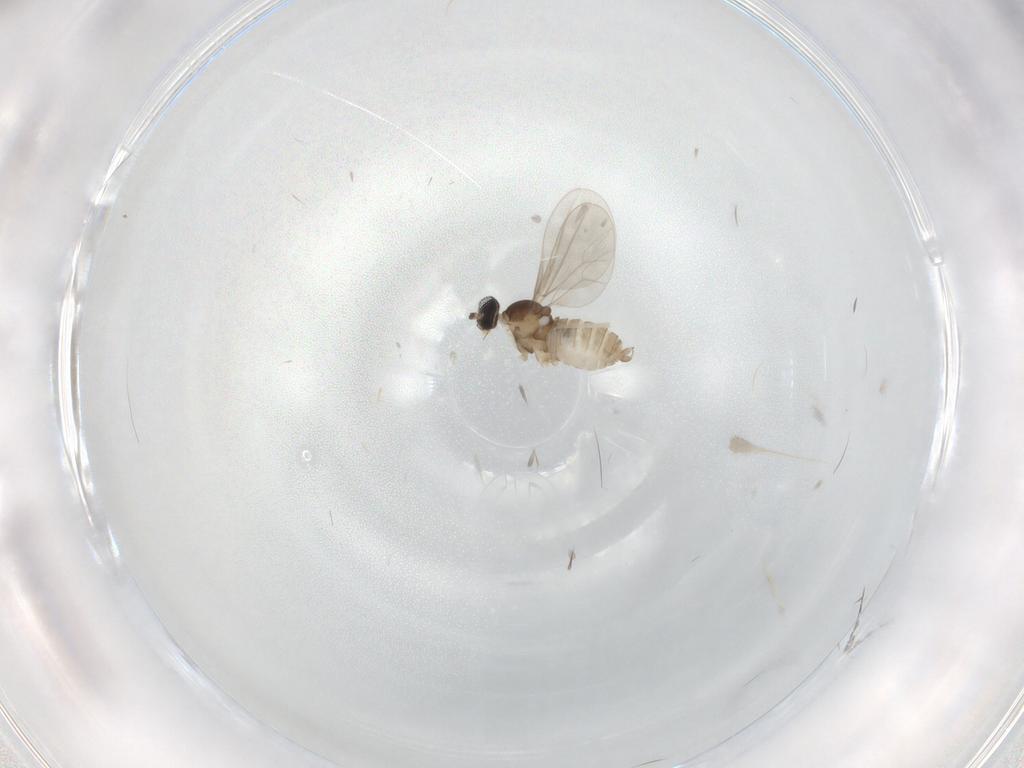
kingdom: Animalia
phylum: Arthropoda
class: Insecta
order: Diptera
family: Cecidomyiidae
